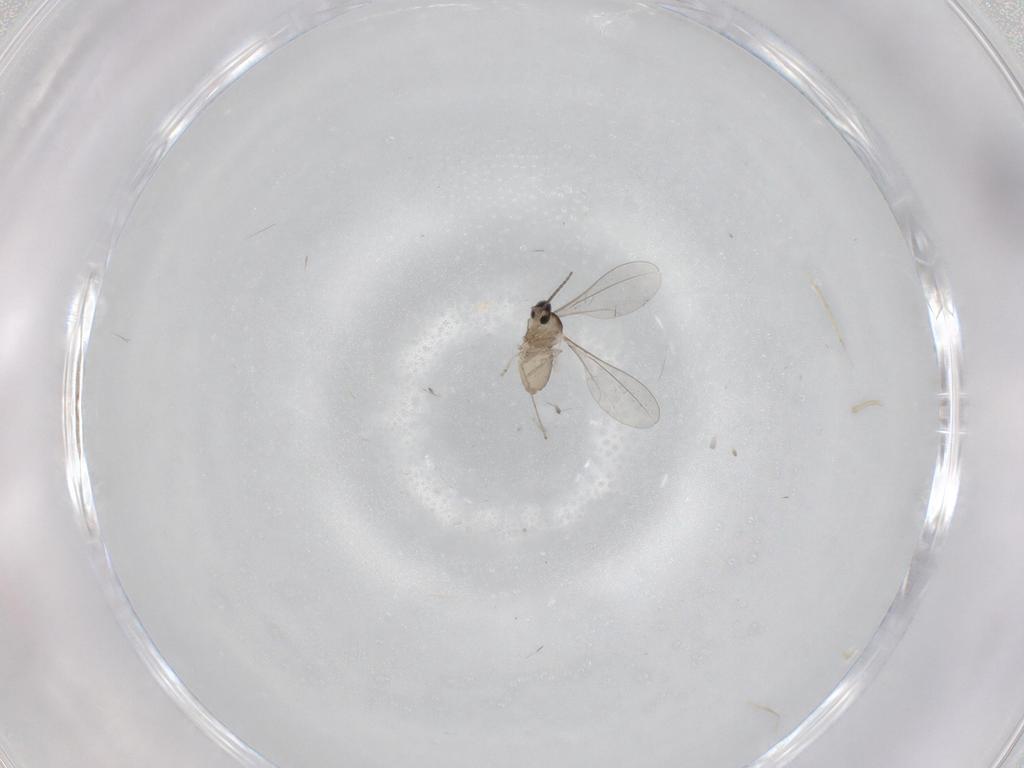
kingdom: Animalia
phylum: Arthropoda
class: Insecta
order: Diptera
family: Cecidomyiidae
